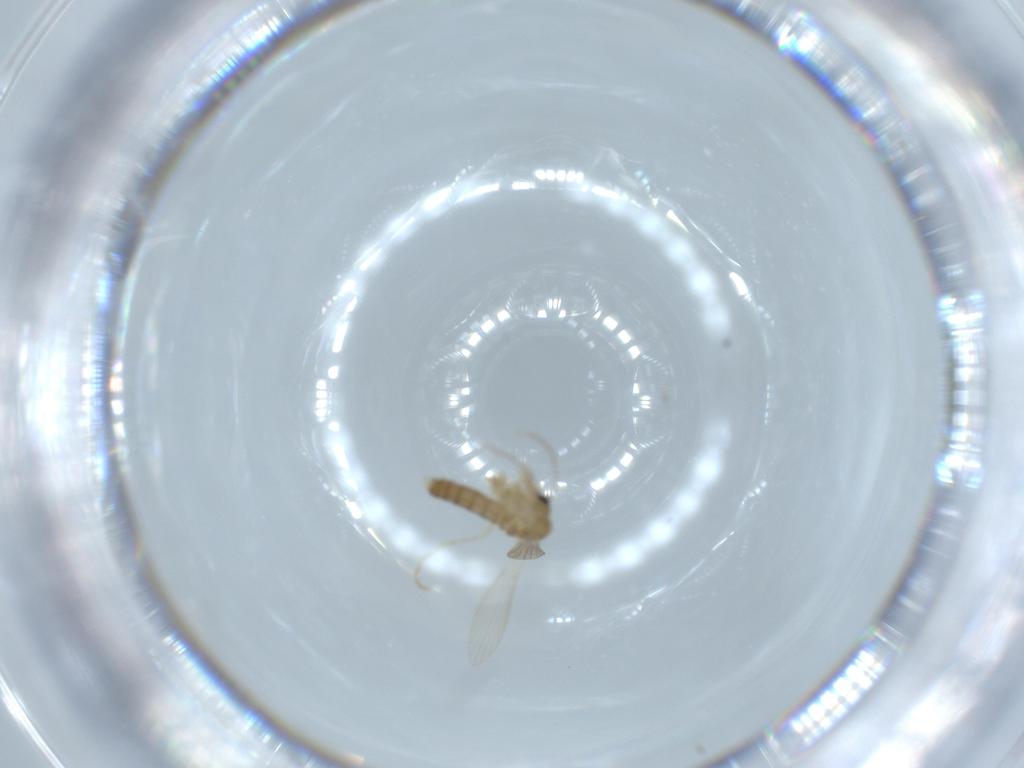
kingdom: Animalia
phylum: Arthropoda
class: Insecta
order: Diptera
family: Psychodidae
